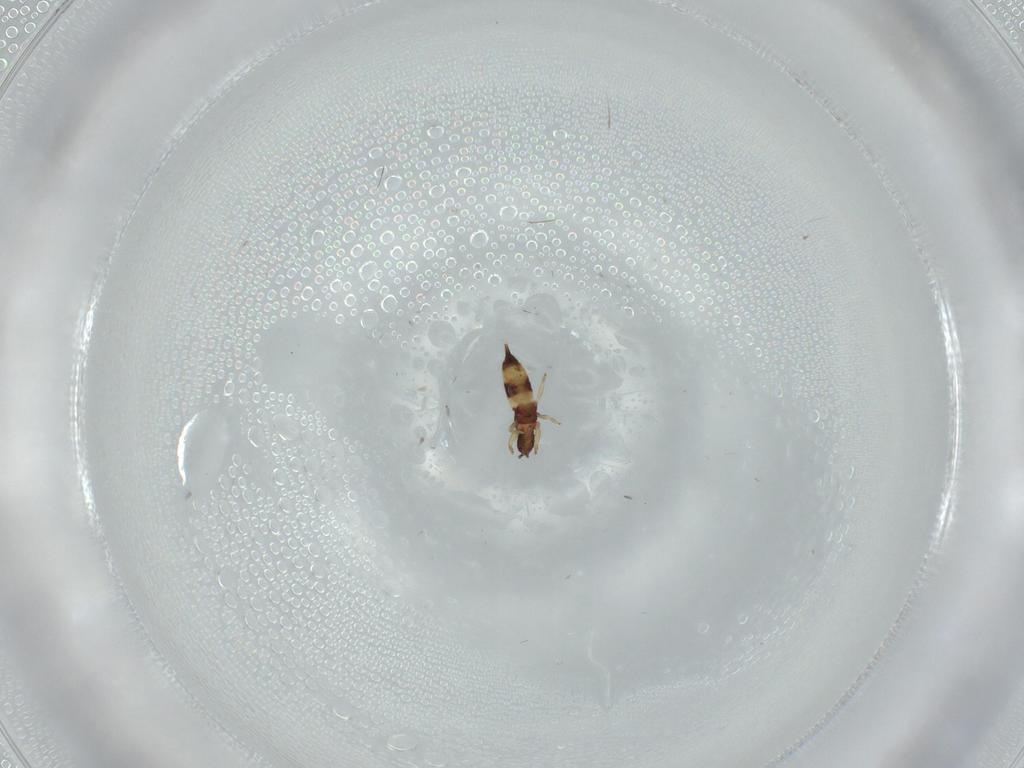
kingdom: Animalia
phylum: Arthropoda
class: Insecta
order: Thysanoptera
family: Phlaeothripidae
